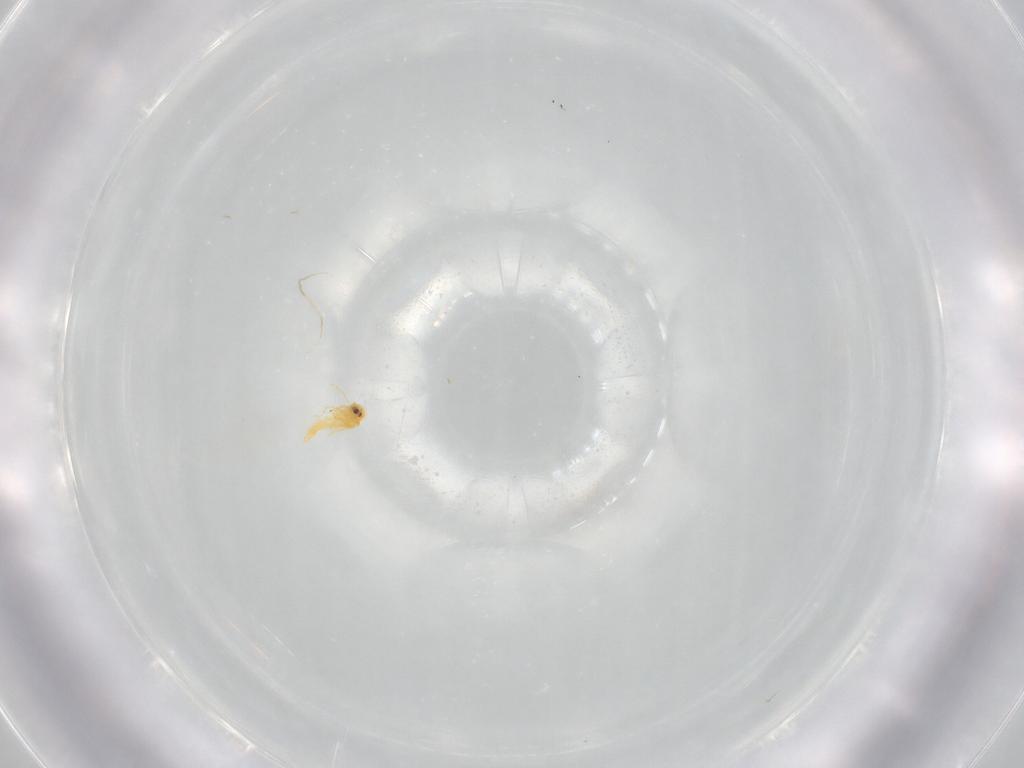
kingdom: Animalia
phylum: Arthropoda
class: Insecta
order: Hemiptera
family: Aleyrodidae
